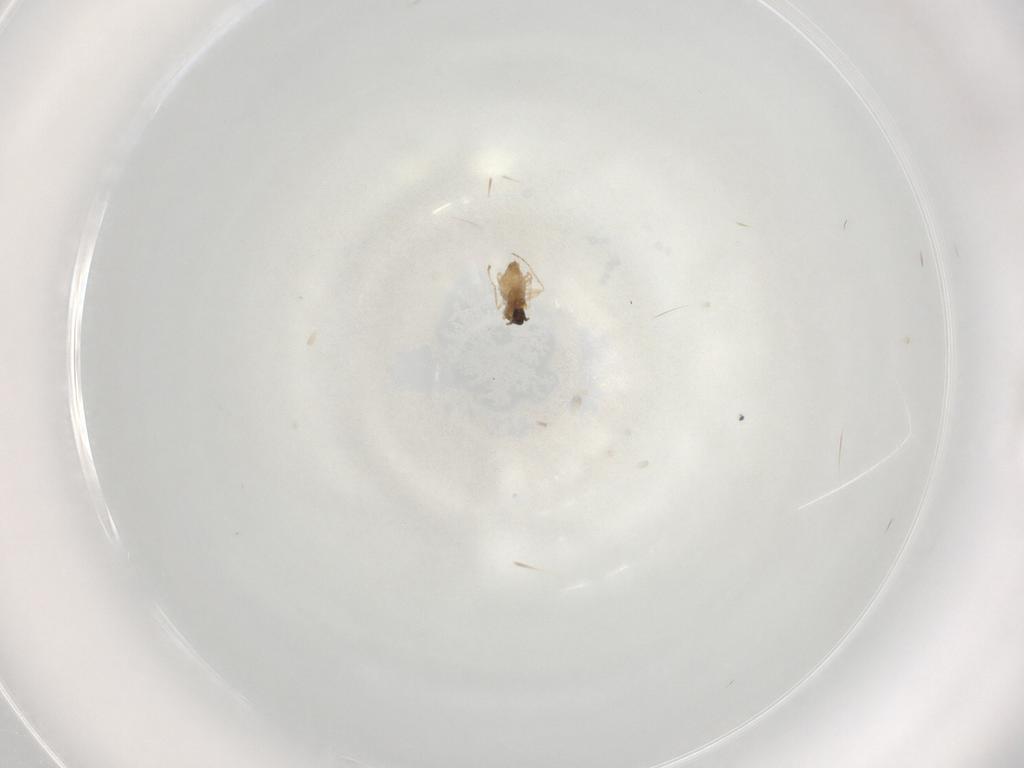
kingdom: Animalia
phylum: Arthropoda
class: Insecta
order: Diptera
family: Cecidomyiidae
